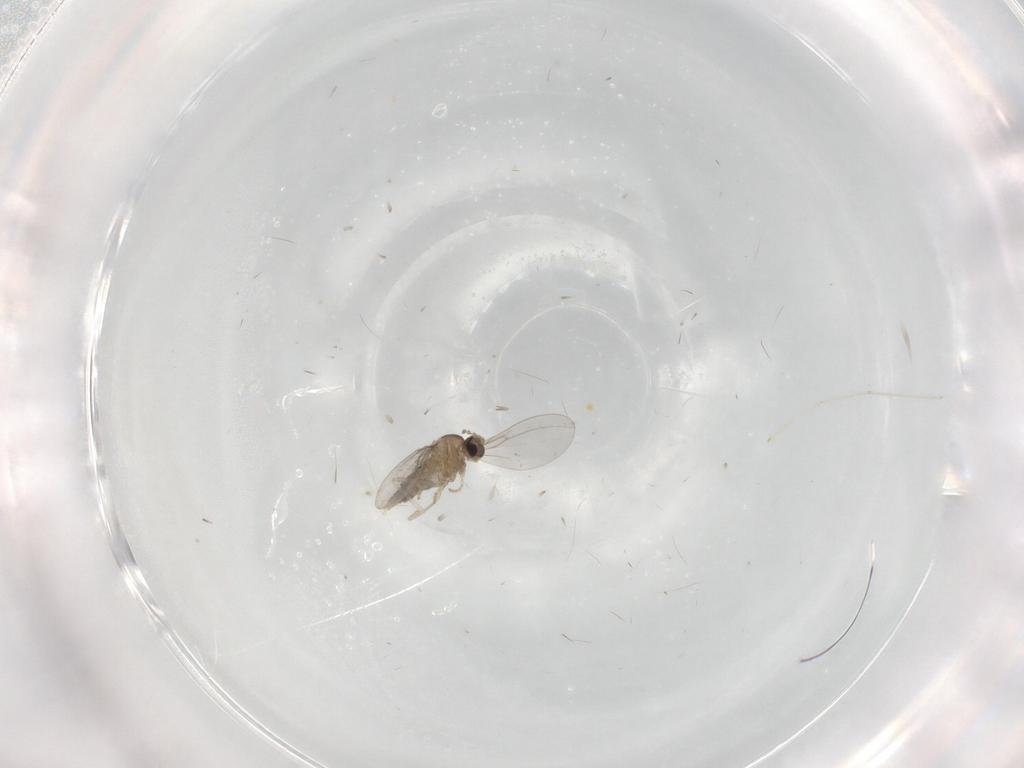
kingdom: Animalia
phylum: Arthropoda
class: Insecta
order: Diptera
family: Cecidomyiidae
